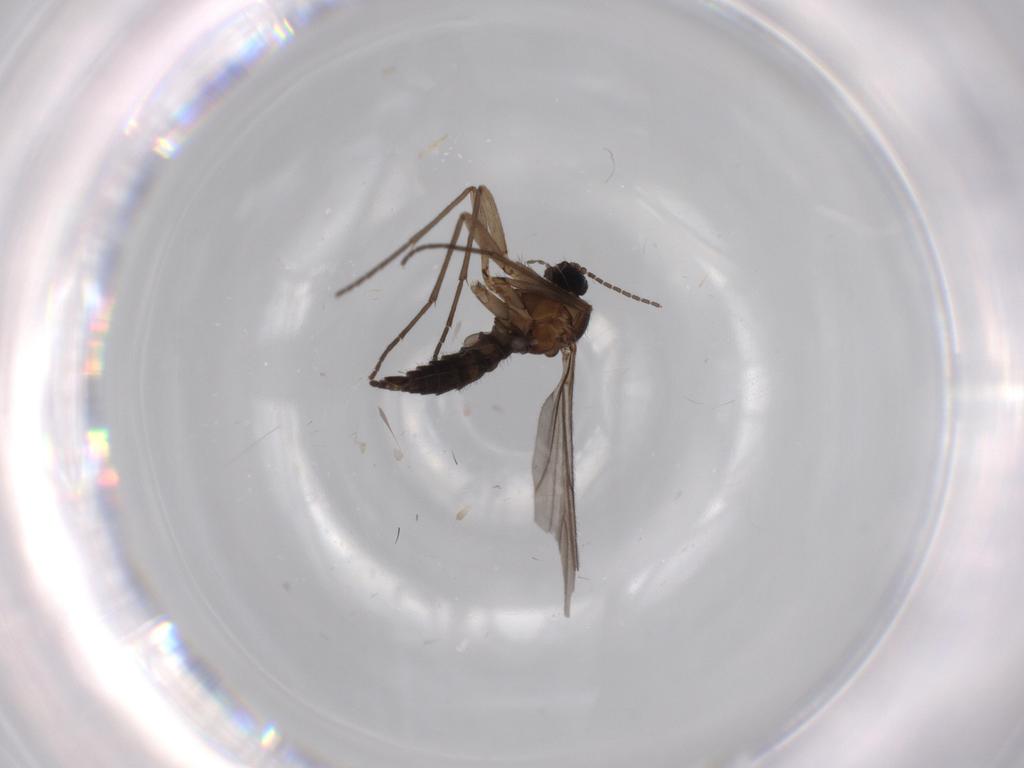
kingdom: Animalia
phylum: Arthropoda
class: Insecta
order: Diptera
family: Sciaridae
